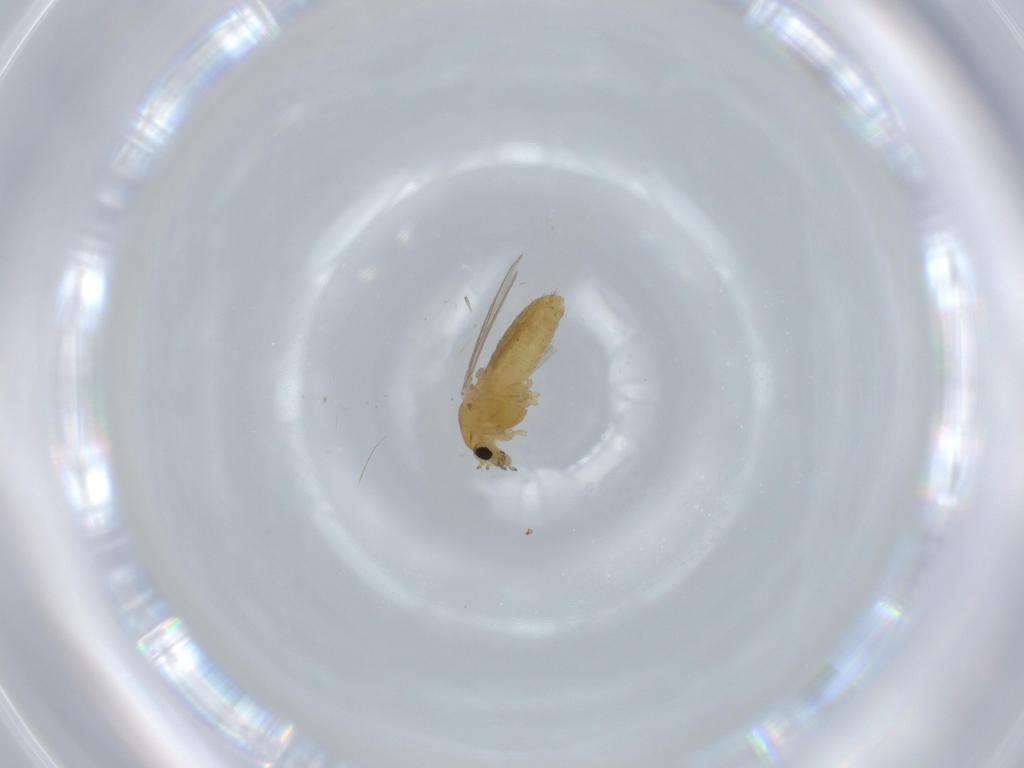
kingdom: Animalia
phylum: Arthropoda
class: Insecta
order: Diptera
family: Chironomidae
